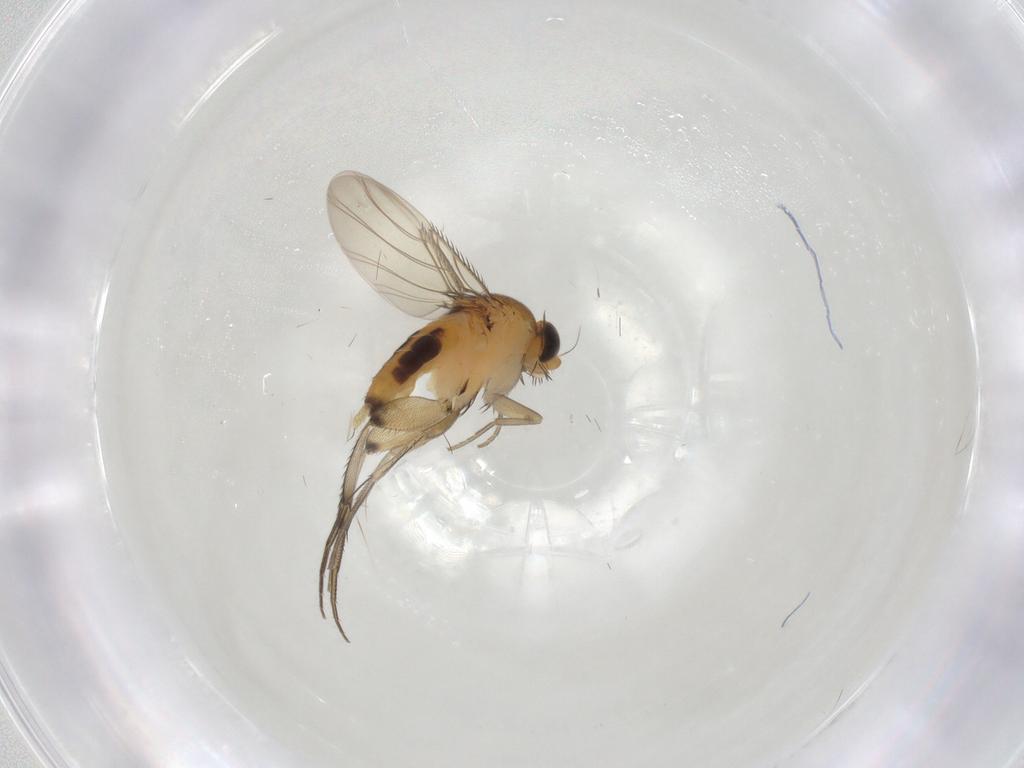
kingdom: Animalia
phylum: Arthropoda
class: Insecta
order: Diptera
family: Phoridae
